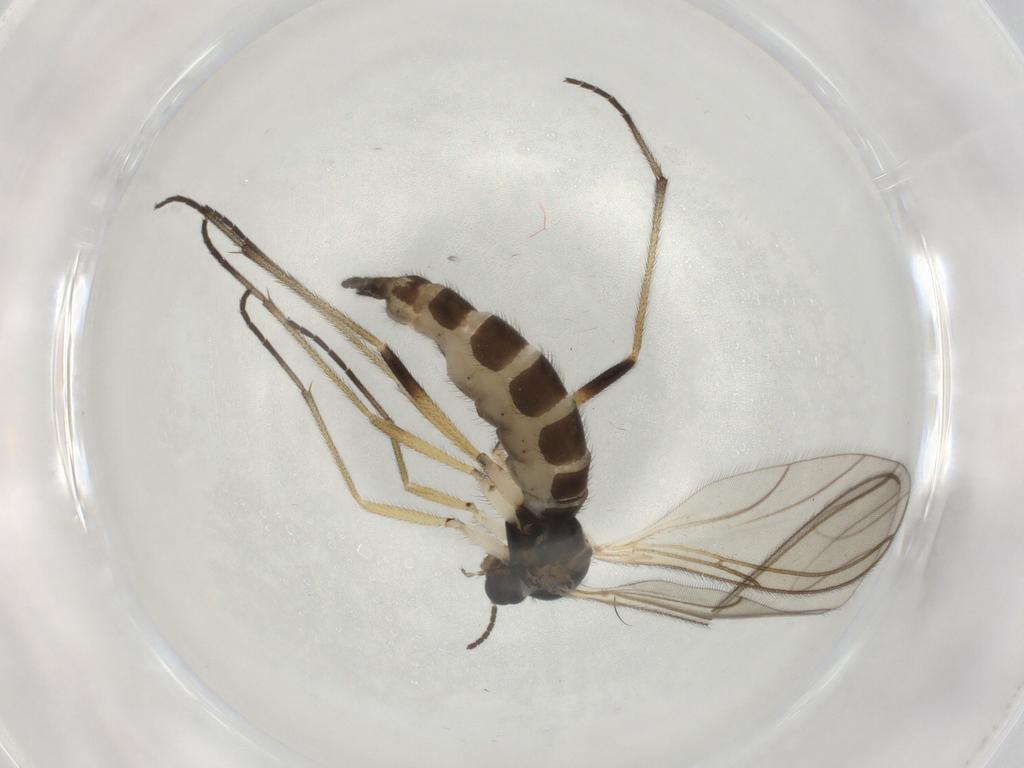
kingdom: Animalia
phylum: Arthropoda
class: Insecta
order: Diptera
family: Sciaridae
